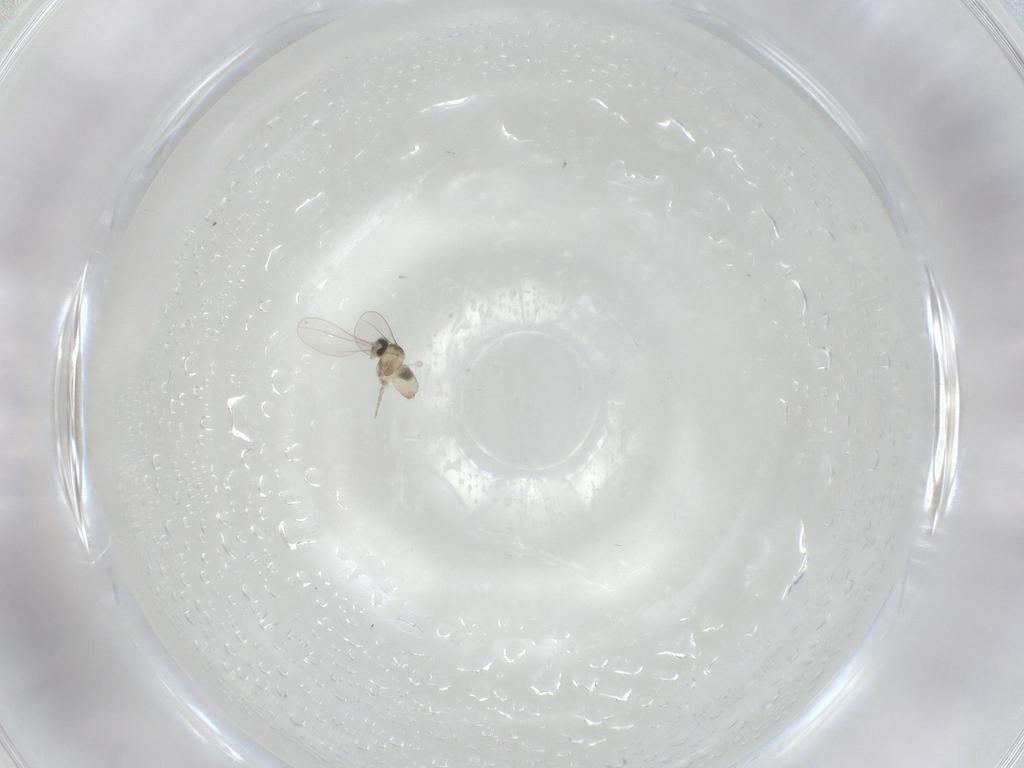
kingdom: Animalia
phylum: Arthropoda
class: Insecta
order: Diptera
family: Cecidomyiidae
